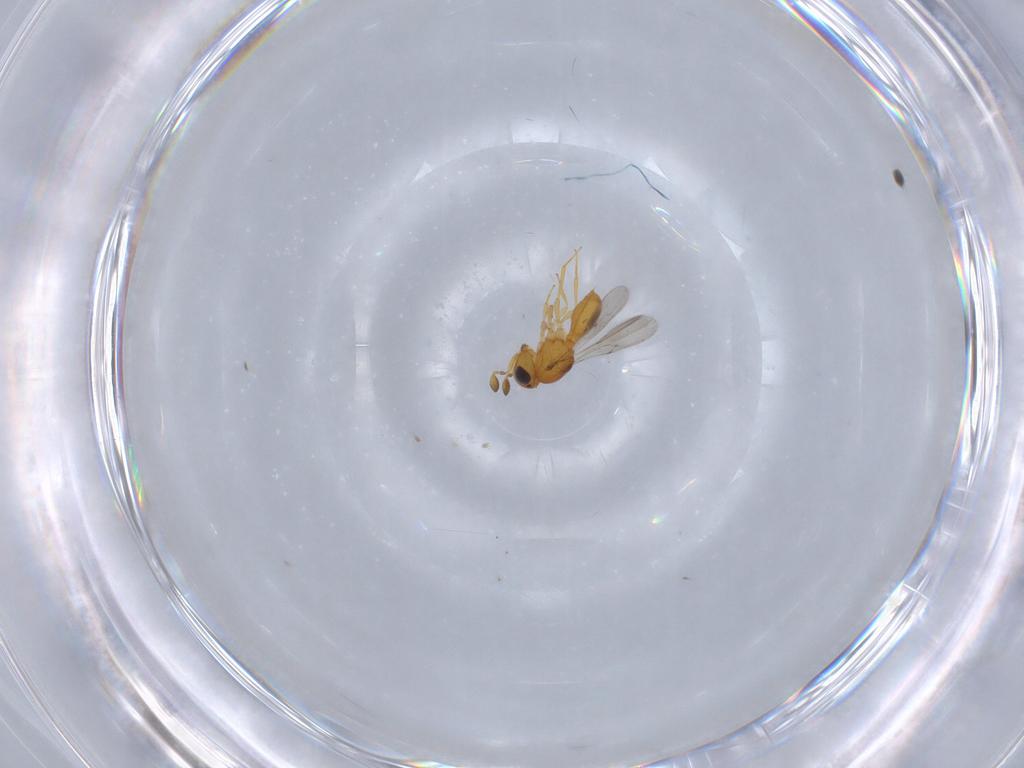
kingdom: Animalia
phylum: Arthropoda
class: Insecta
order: Hymenoptera
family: Scelionidae
